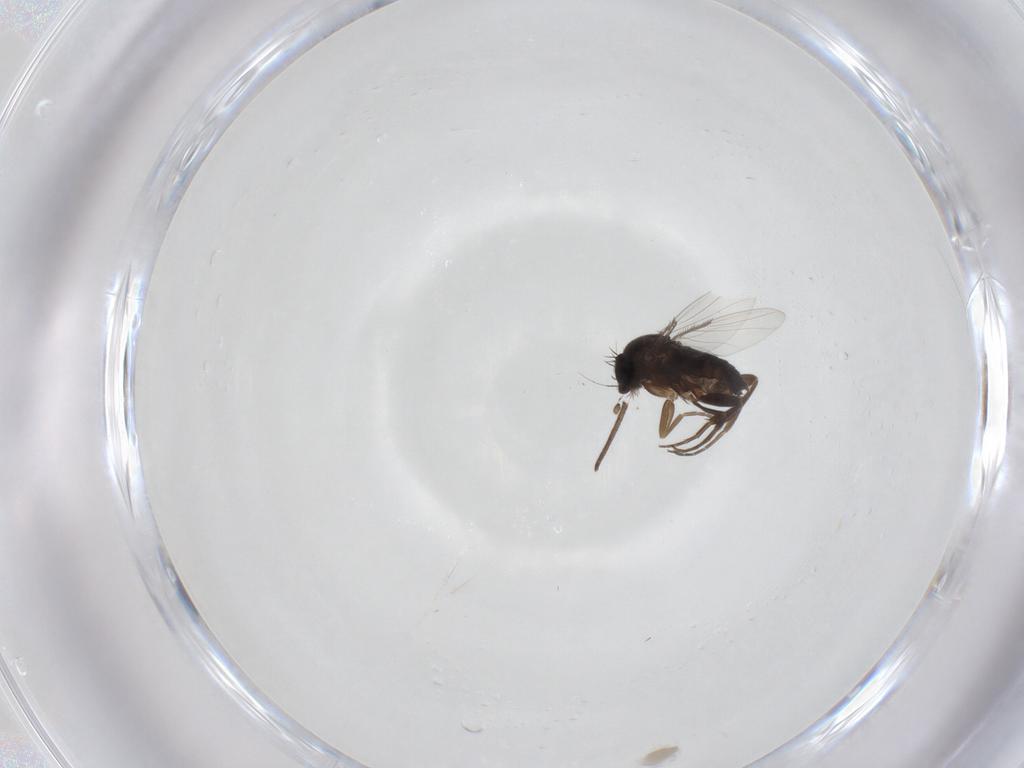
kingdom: Animalia
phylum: Arthropoda
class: Insecta
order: Diptera
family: Phoridae
